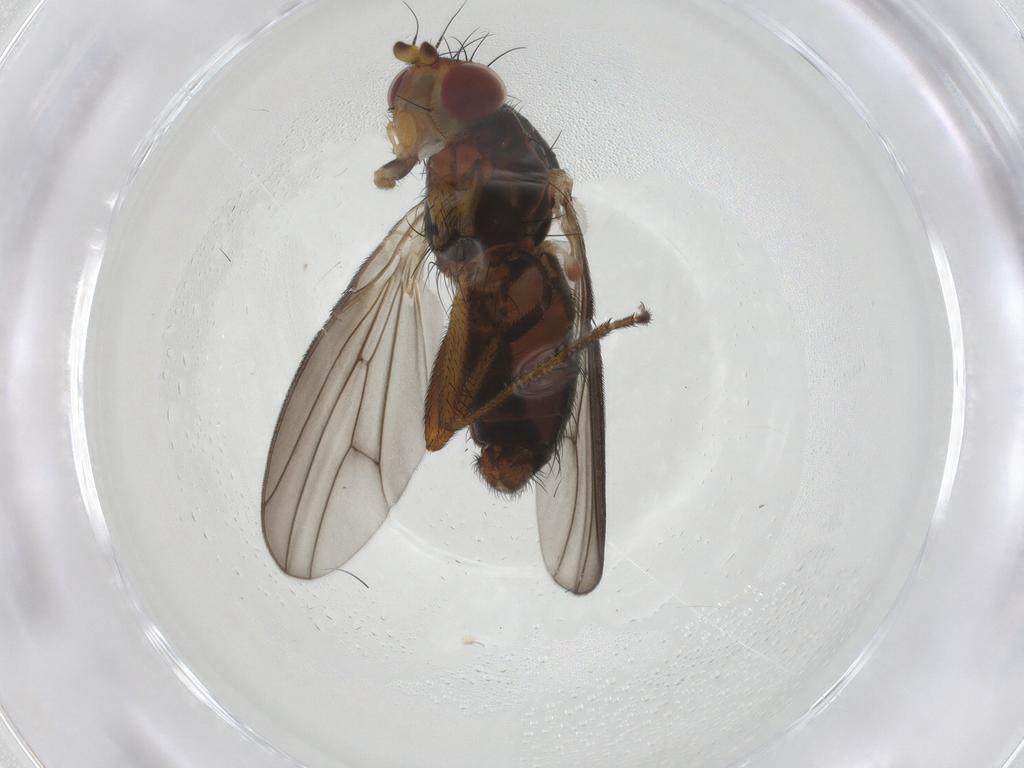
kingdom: Animalia
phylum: Arthropoda
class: Insecta
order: Diptera
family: Heleomyzidae
